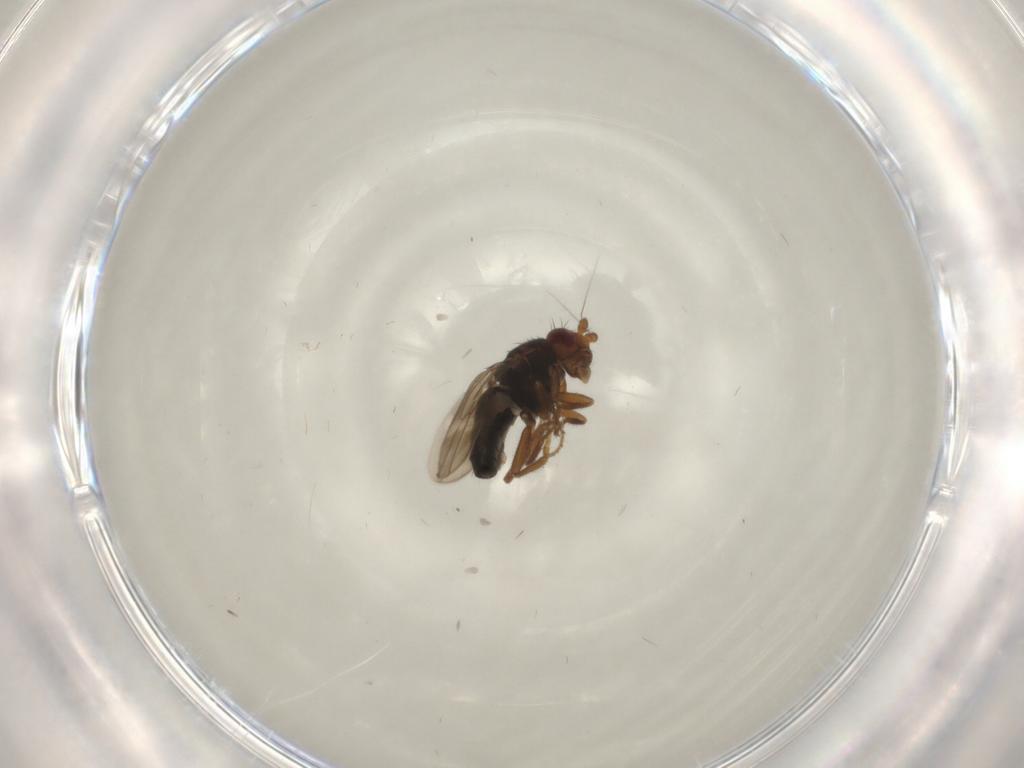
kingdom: Animalia
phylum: Arthropoda
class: Insecta
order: Diptera
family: Sphaeroceridae
